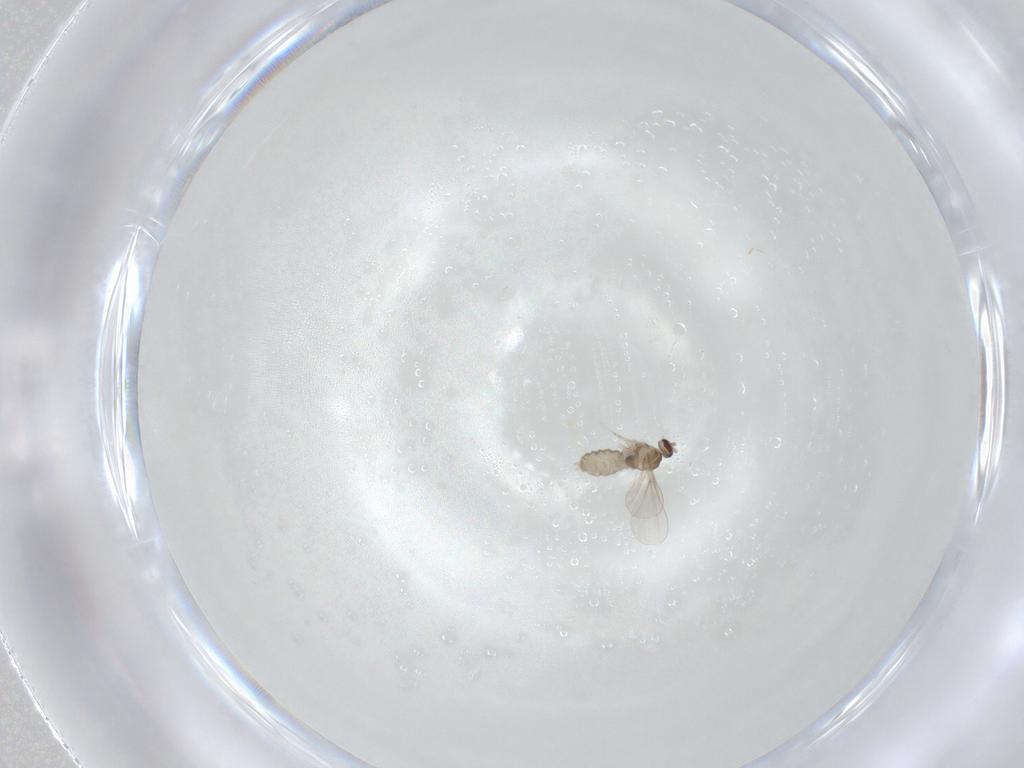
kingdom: Animalia
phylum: Arthropoda
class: Insecta
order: Diptera
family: Cecidomyiidae
